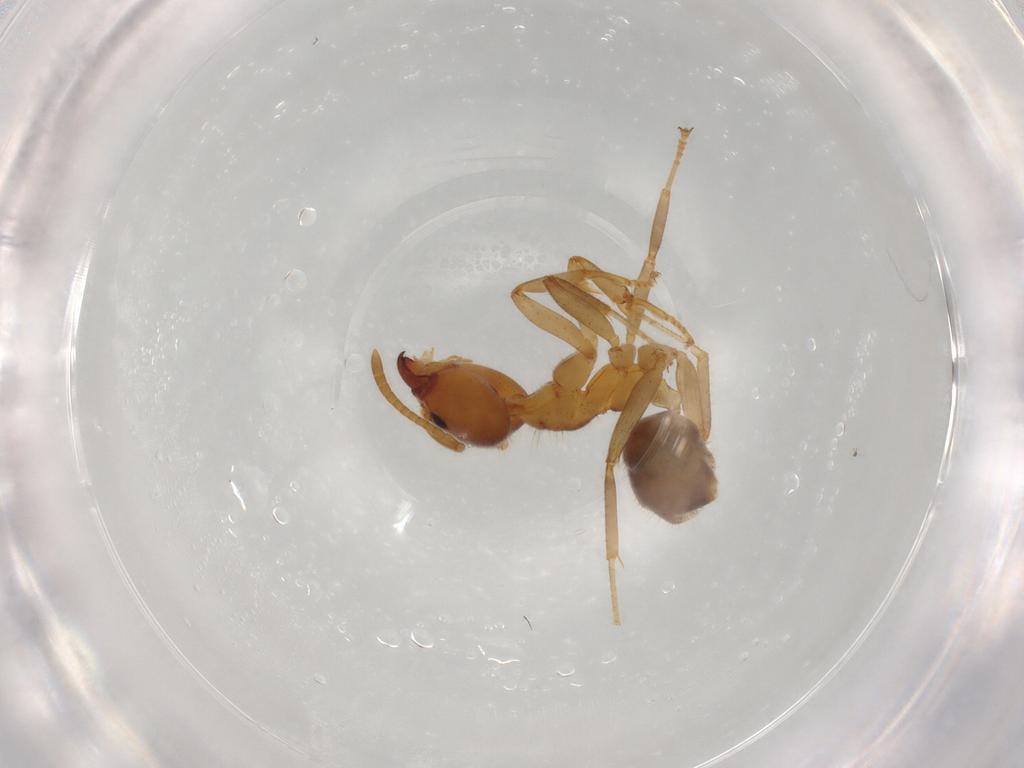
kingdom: Animalia
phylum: Arthropoda
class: Insecta
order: Hymenoptera
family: Formicidae
